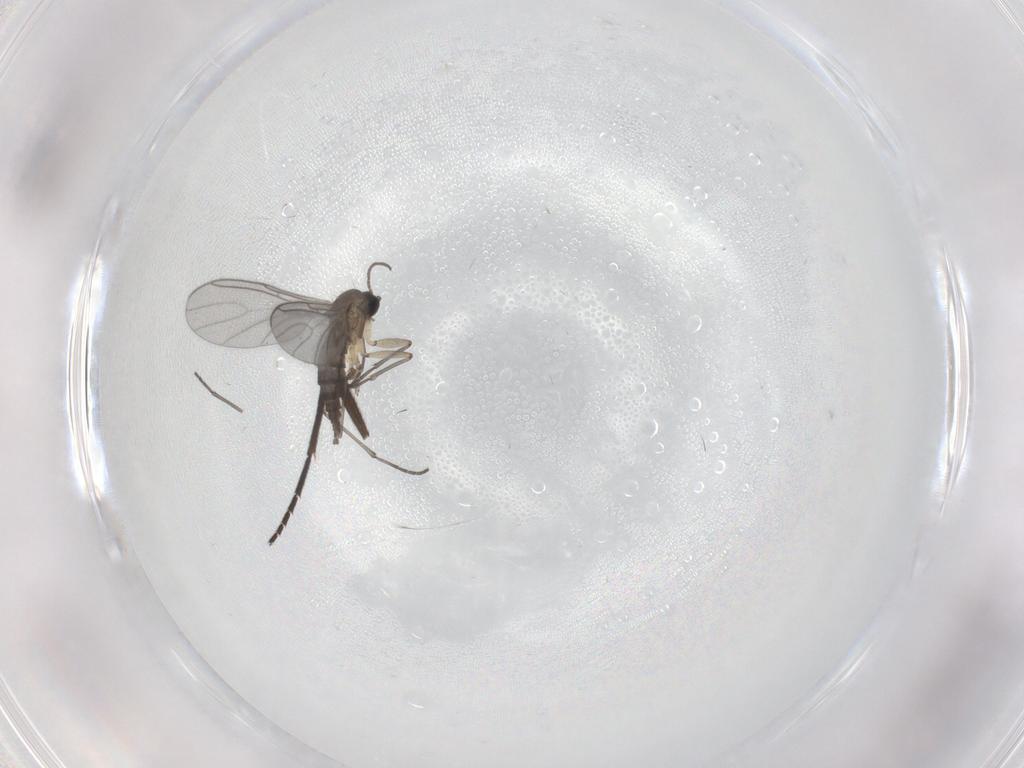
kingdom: Animalia
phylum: Arthropoda
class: Insecta
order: Diptera
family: Sciaridae
